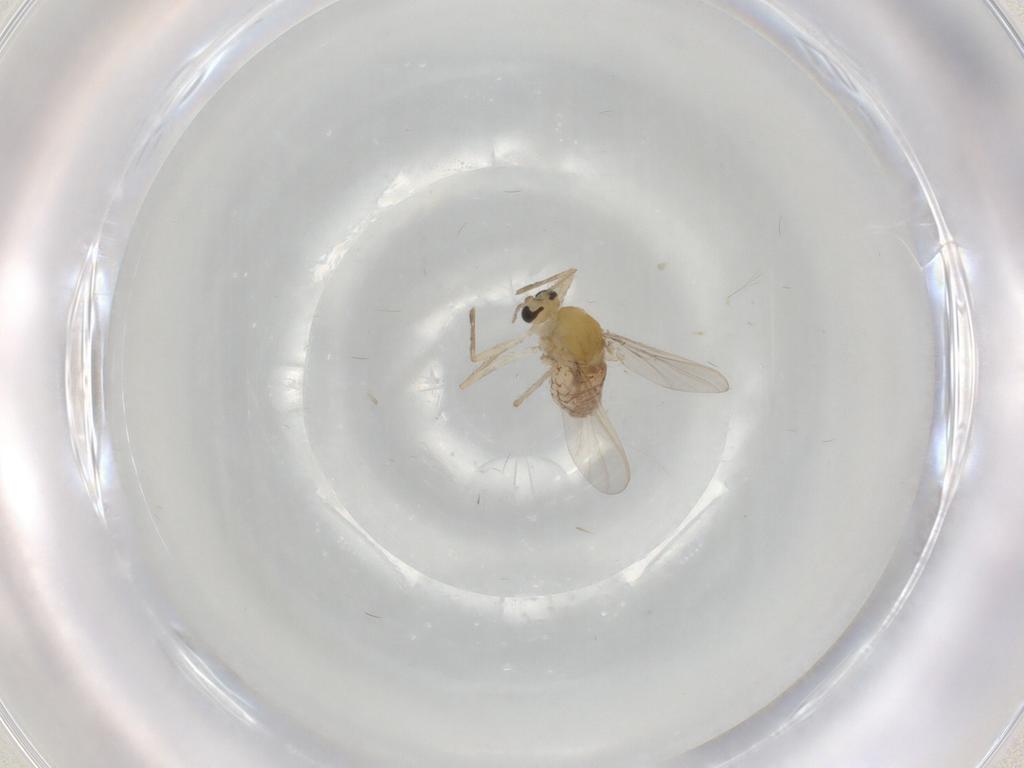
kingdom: Animalia
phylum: Arthropoda
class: Insecta
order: Diptera
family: Chironomidae
